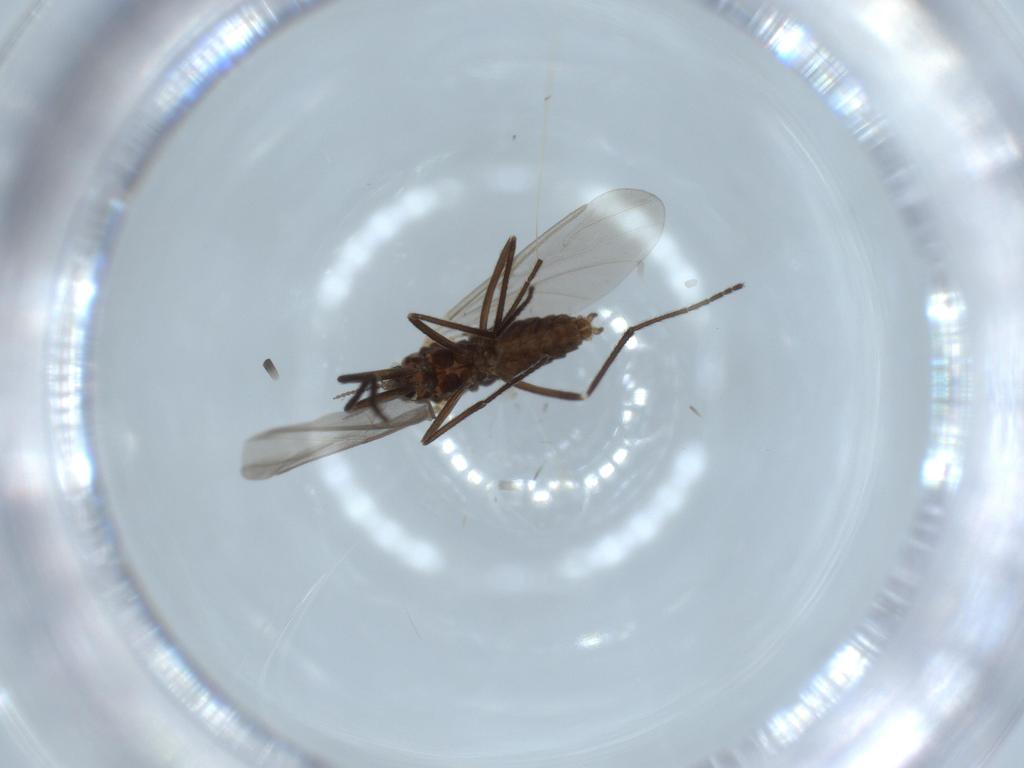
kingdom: Animalia
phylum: Arthropoda
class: Insecta
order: Diptera
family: Cecidomyiidae
